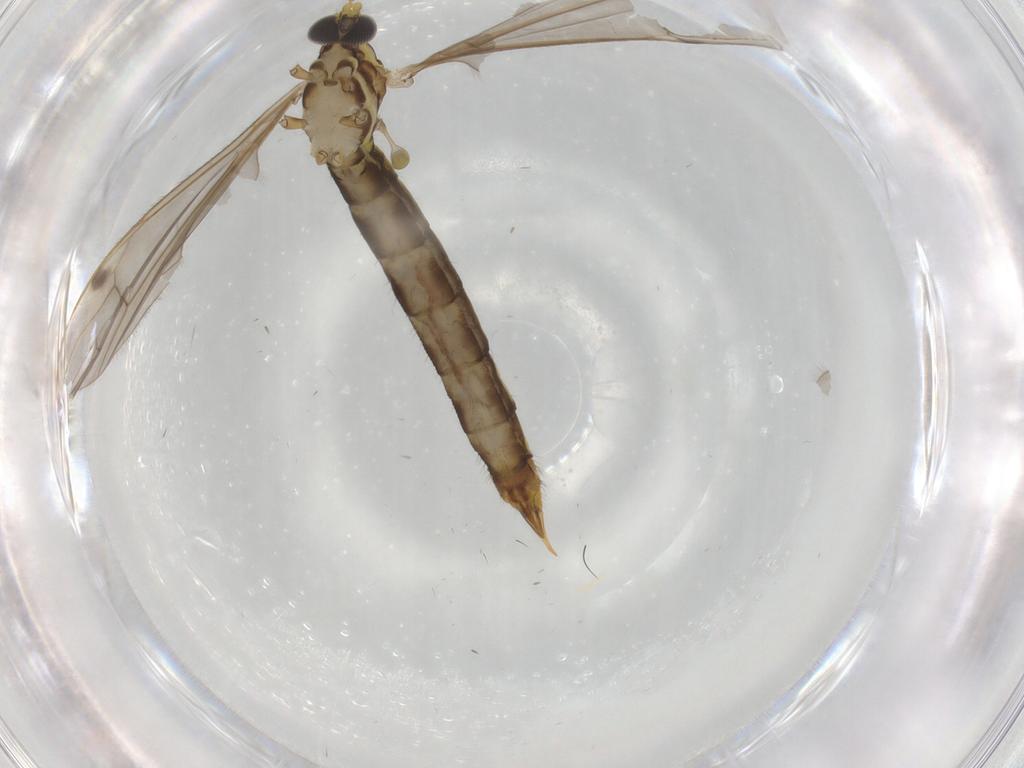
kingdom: Animalia
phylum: Arthropoda
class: Insecta
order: Diptera
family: Limoniidae
